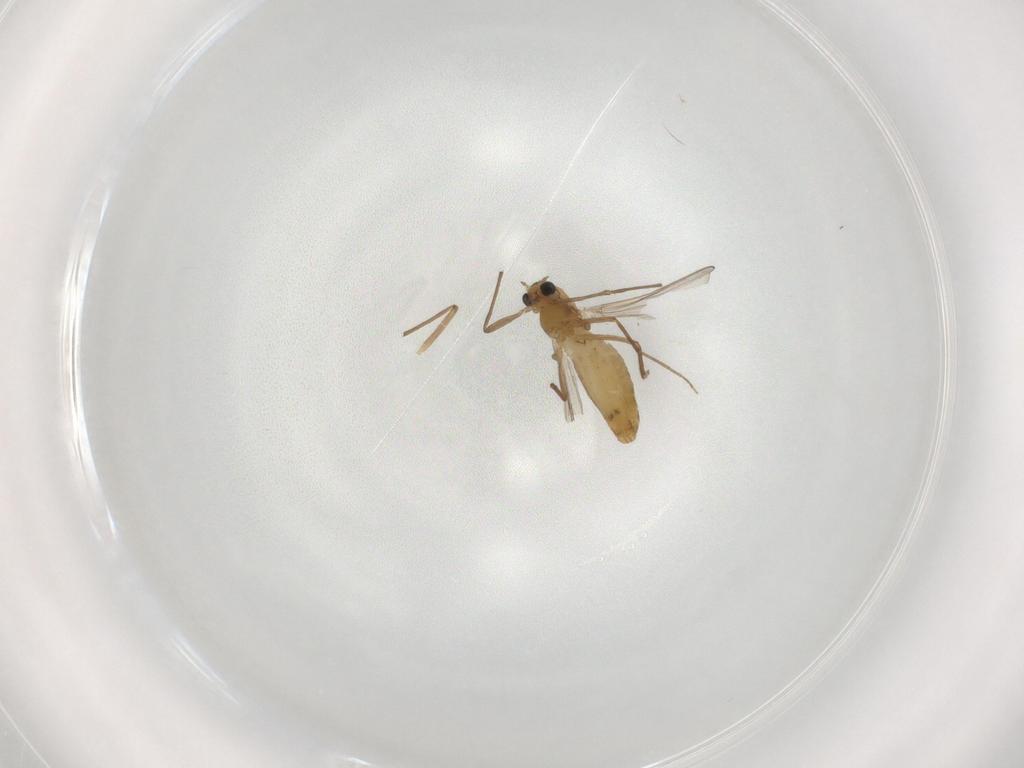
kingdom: Animalia
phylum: Arthropoda
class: Insecta
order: Diptera
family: Chironomidae
